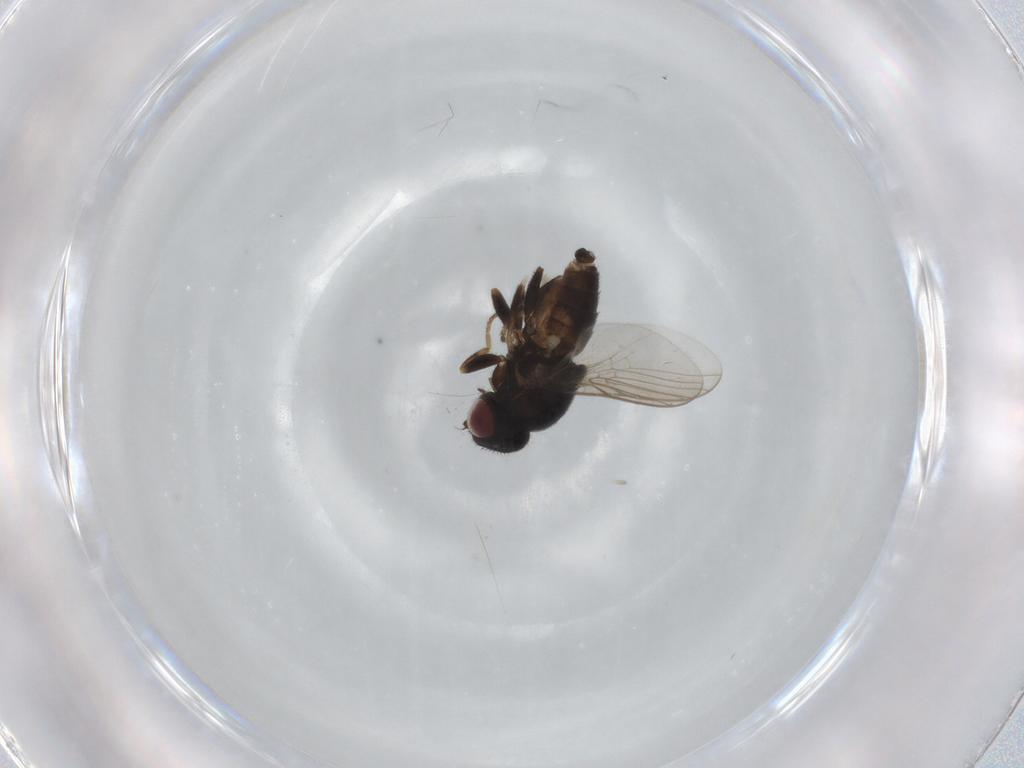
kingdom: Animalia
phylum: Arthropoda
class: Insecta
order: Diptera
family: Chloropidae
